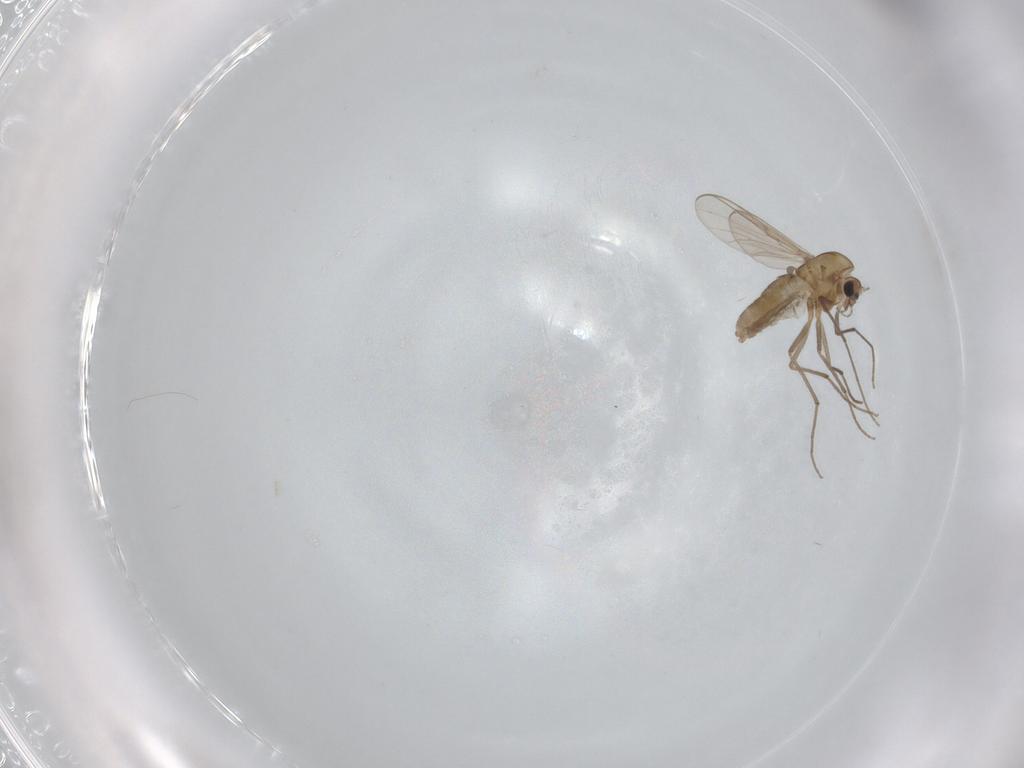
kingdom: Animalia
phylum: Arthropoda
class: Insecta
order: Diptera
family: Chironomidae
